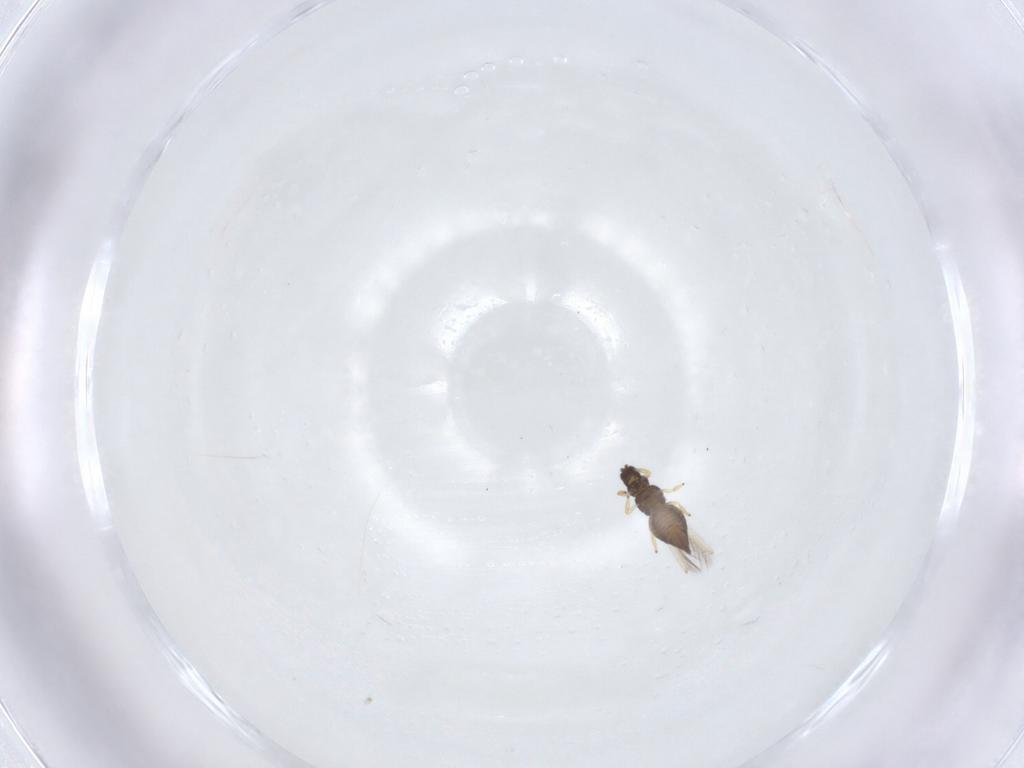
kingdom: Animalia
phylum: Arthropoda
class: Insecta
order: Thysanoptera
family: Thripidae
